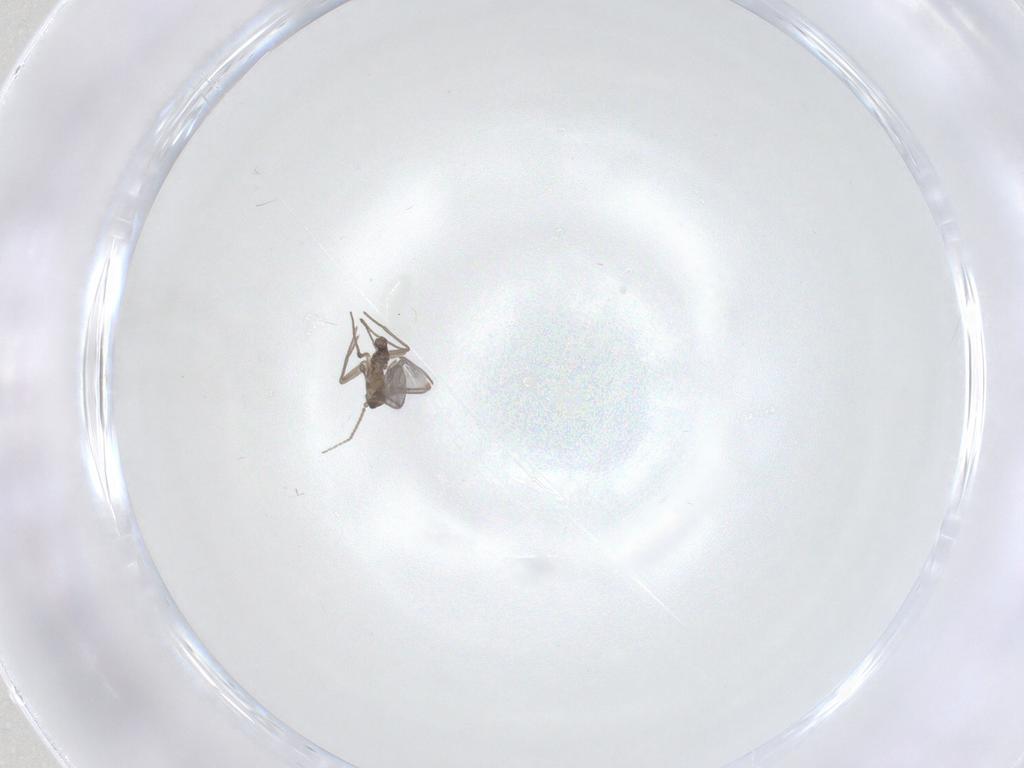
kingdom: Animalia
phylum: Arthropoda
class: Insecta
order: Diptera
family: Sciaridae
